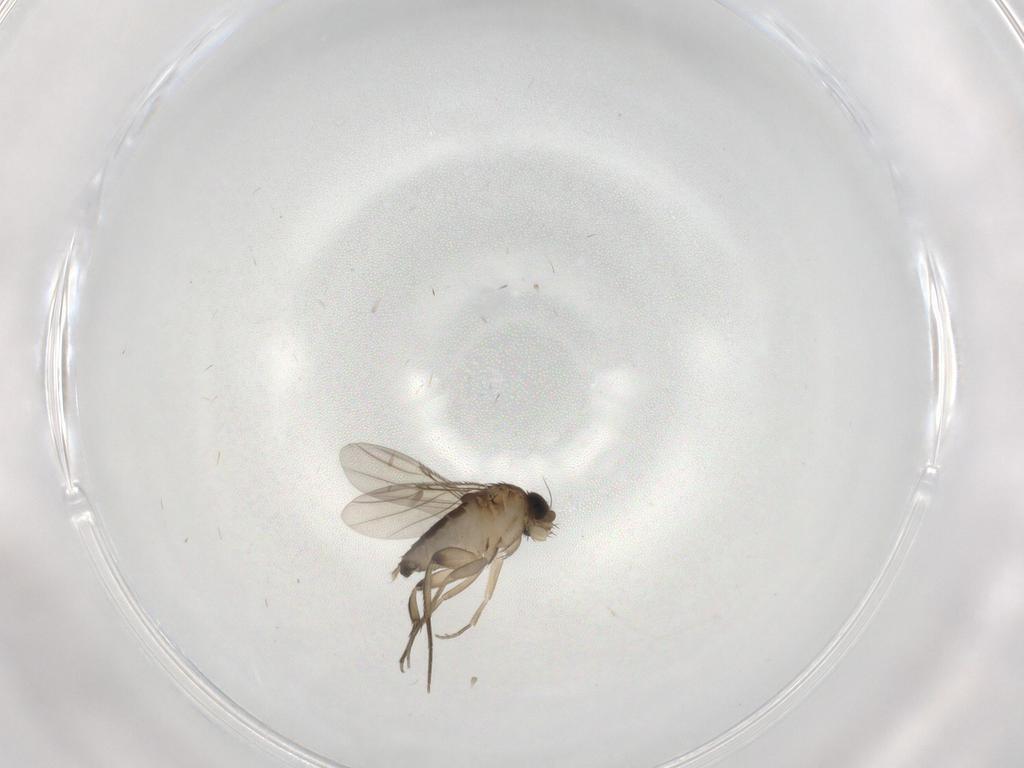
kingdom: Animalia
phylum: Arthropoda
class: Insecta
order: Diptera
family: Phoridae
